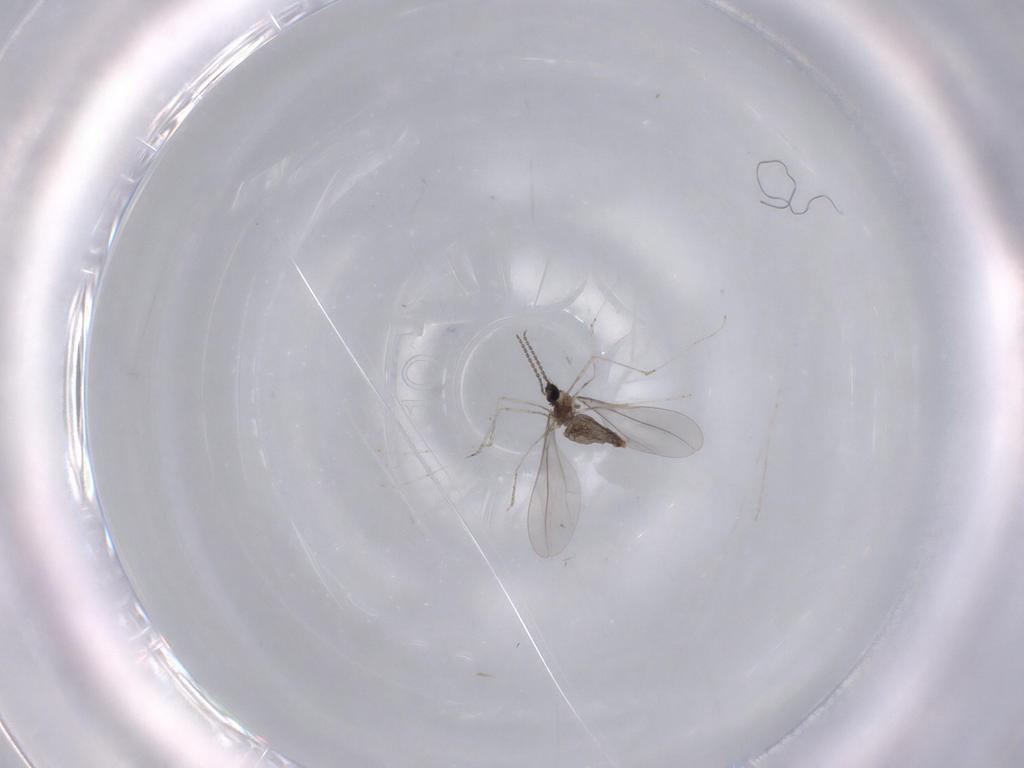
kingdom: Animalia
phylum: Arthropoda
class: Insecta
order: Diptera
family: Cecidomyiidae
